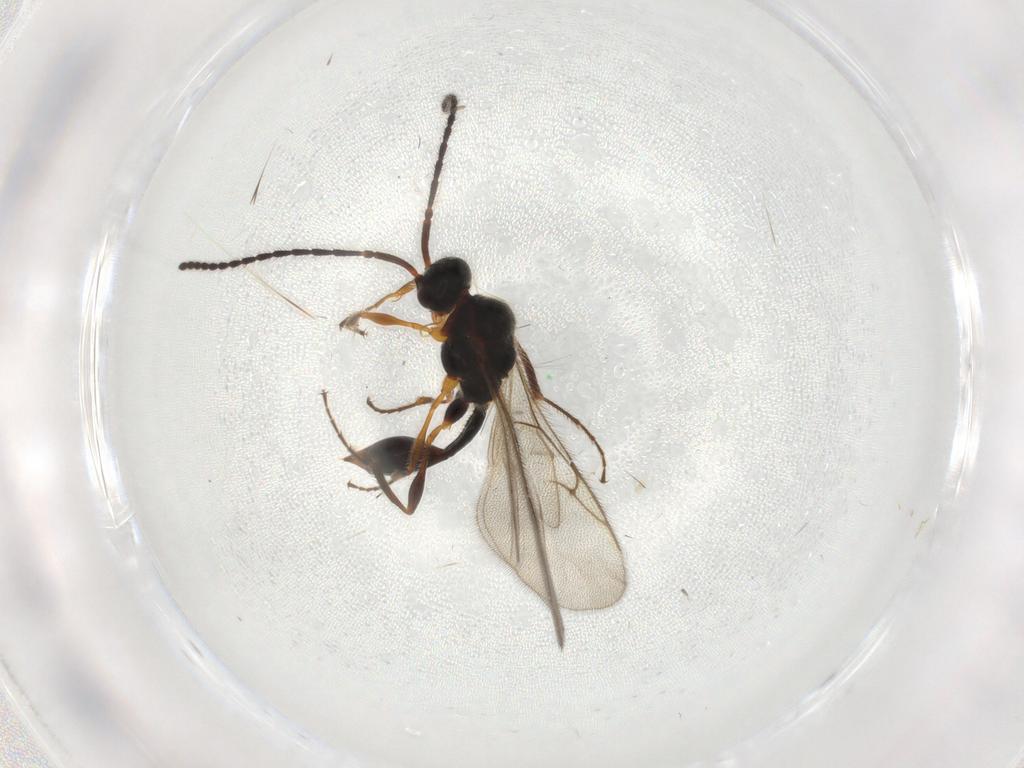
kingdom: Animalia
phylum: Arthropoda
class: Insecta
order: Hymenoptera
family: Diapriidae
